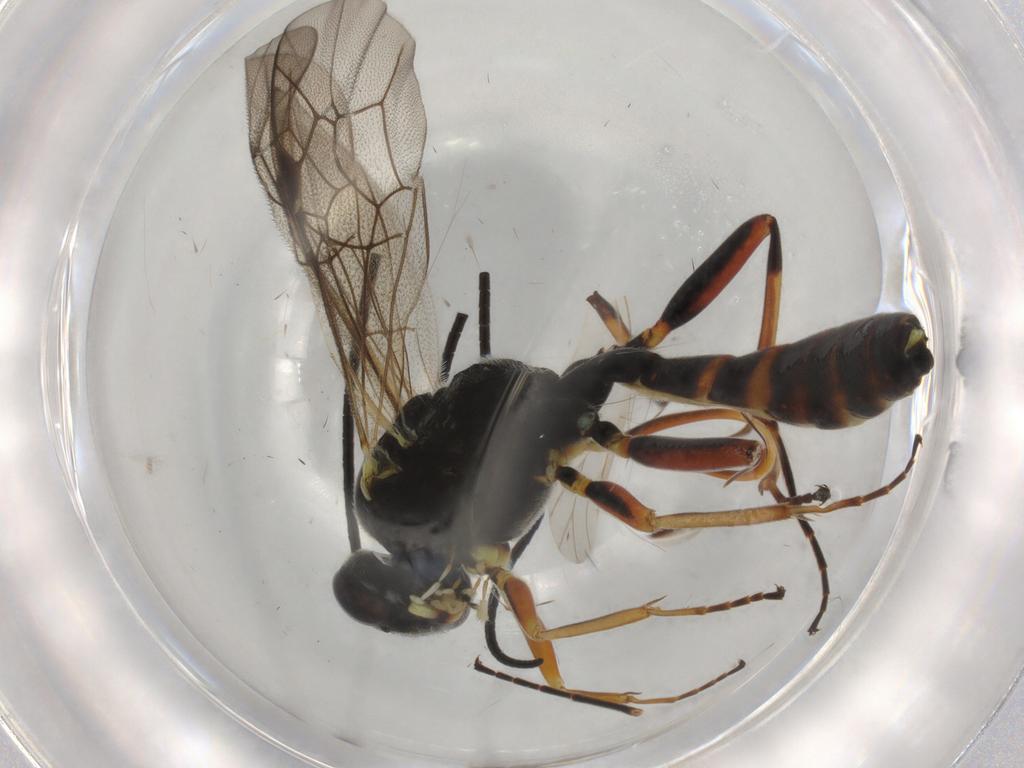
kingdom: Animalia
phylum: Arthropoda
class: Insecta
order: Hymenoptera
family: Ichneumonidae
